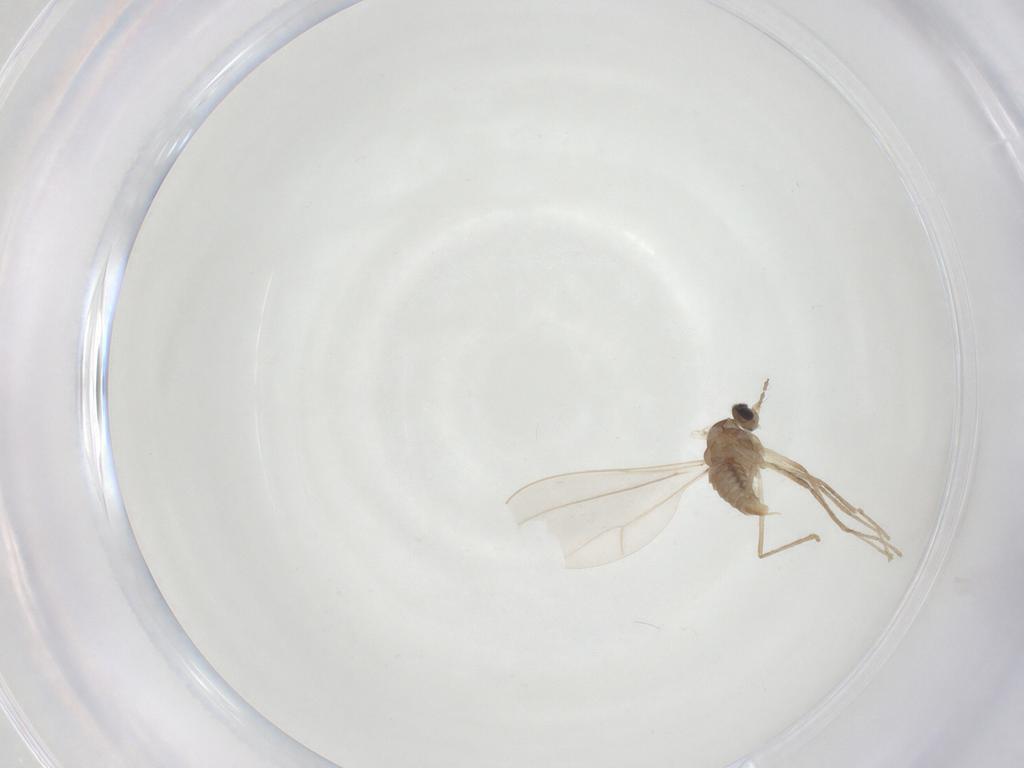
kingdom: Animalia
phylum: Arthropoda
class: Insecta
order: Diptera
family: Cecidomyiidae
